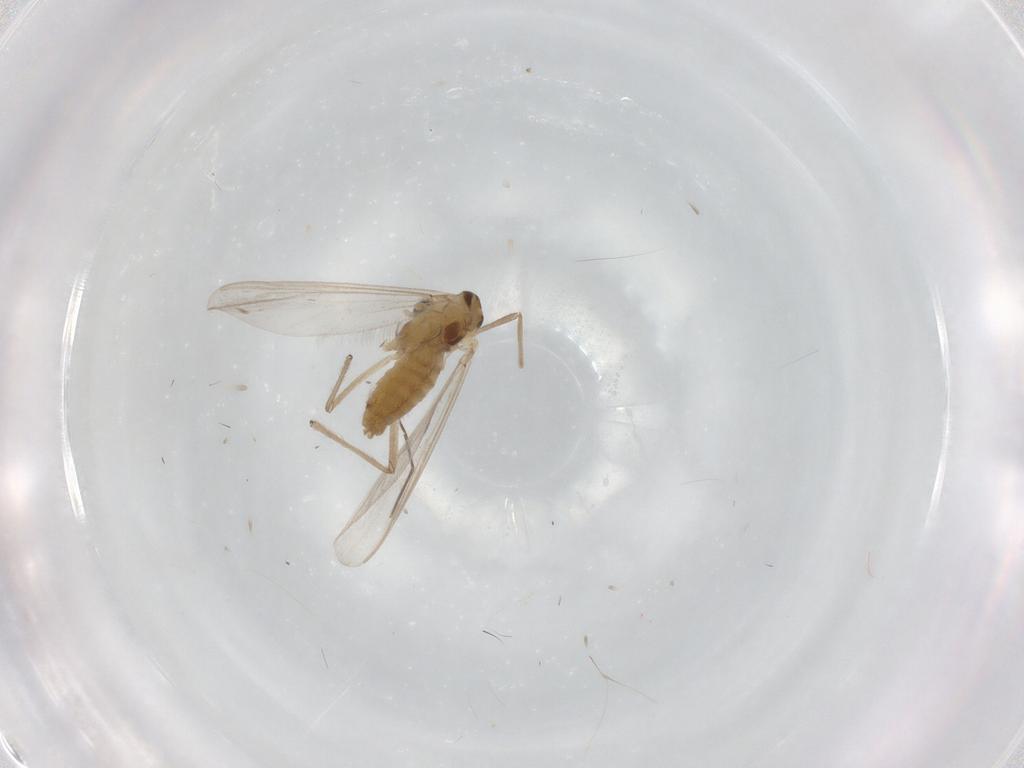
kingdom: Animalia
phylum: Arthropoda
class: Insecta
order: Diptera
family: Chironomidae
